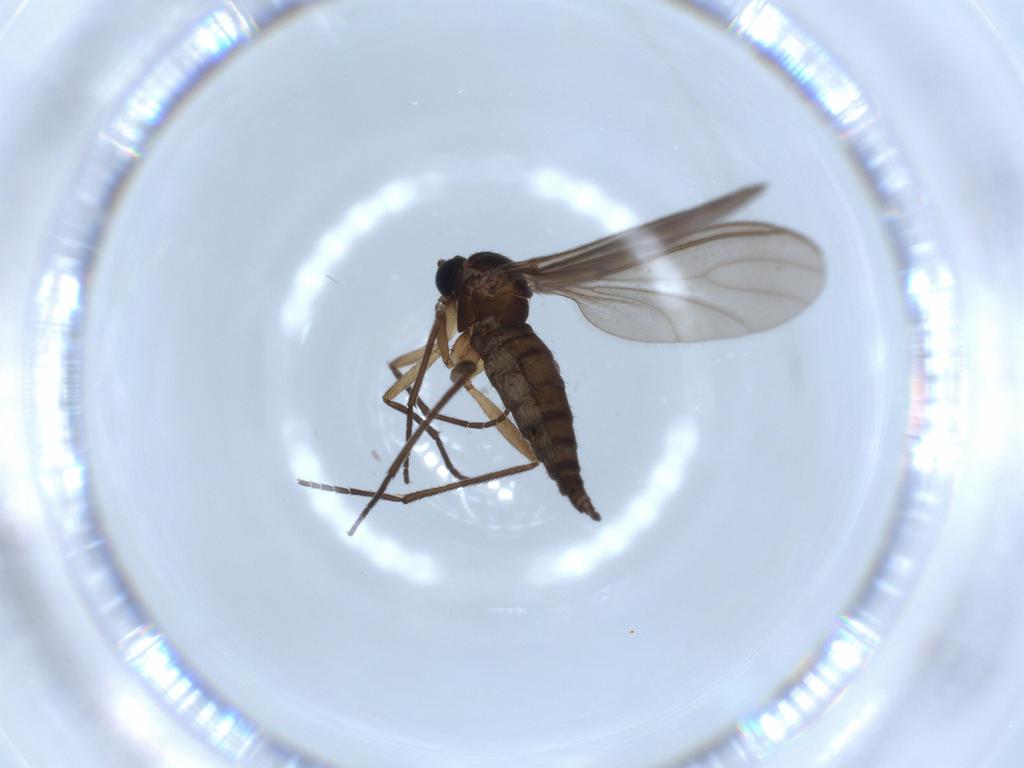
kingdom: Animalia
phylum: Arthropoda
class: Insecta
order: Diptera
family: Sciaridae
